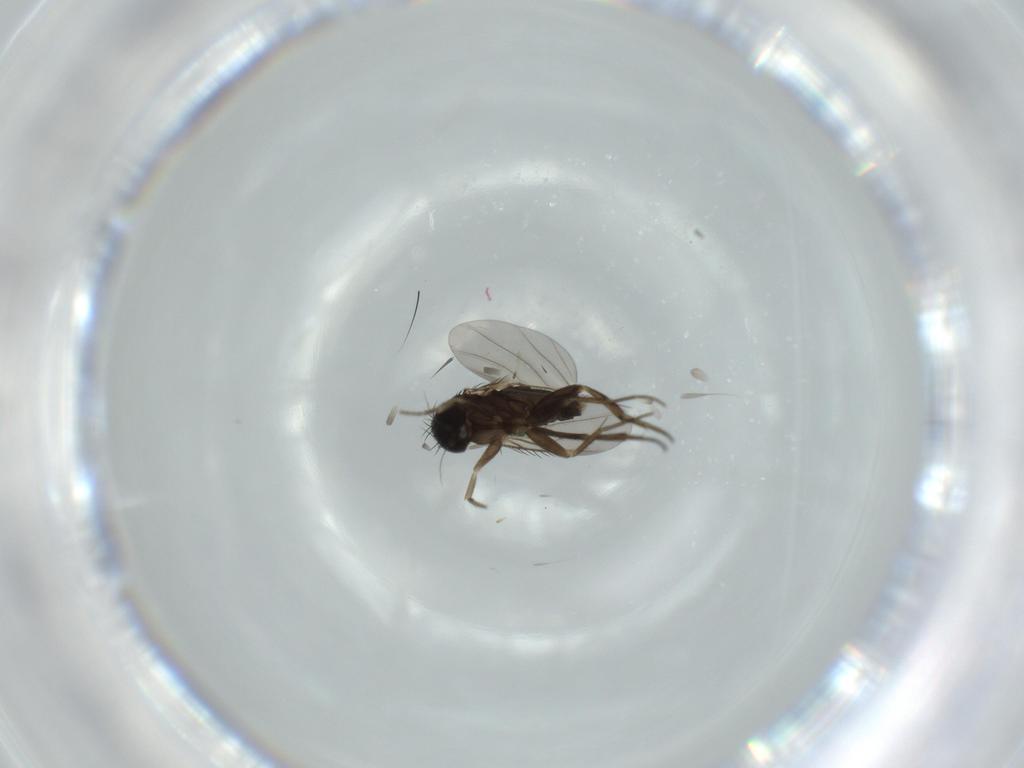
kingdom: Animalia
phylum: Arthropoda
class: Insecta
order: Diptera
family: Phoridae
